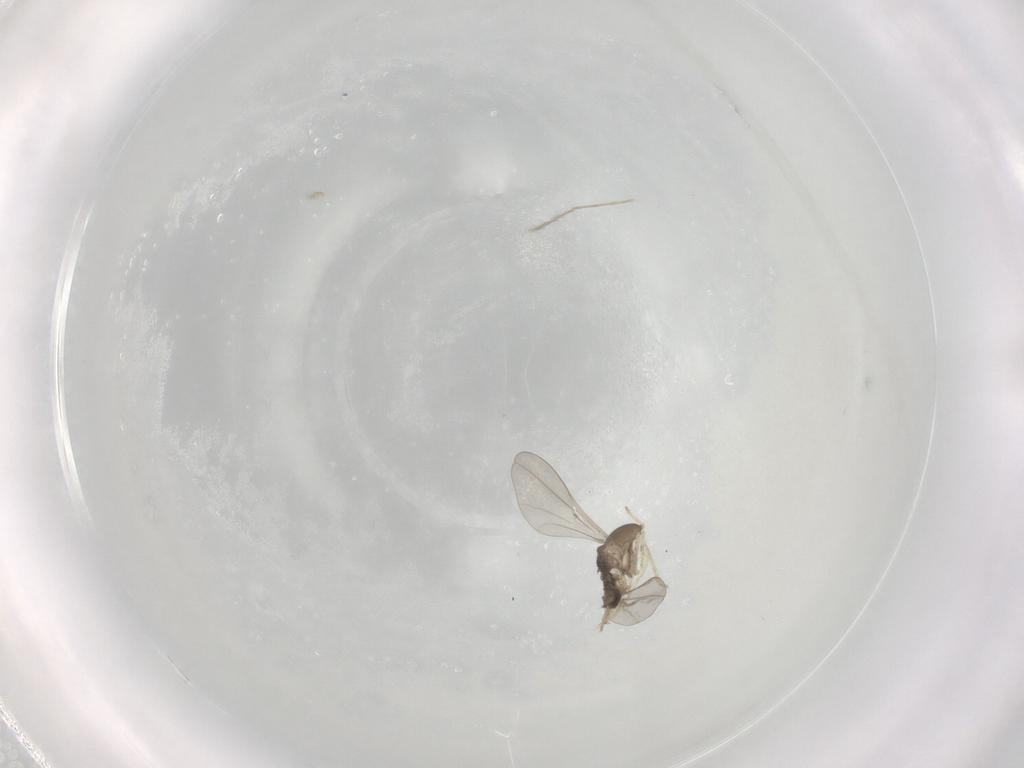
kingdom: Animalia
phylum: Arthropoda
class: Insecta
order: Diptera
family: Cecidomyiidae
